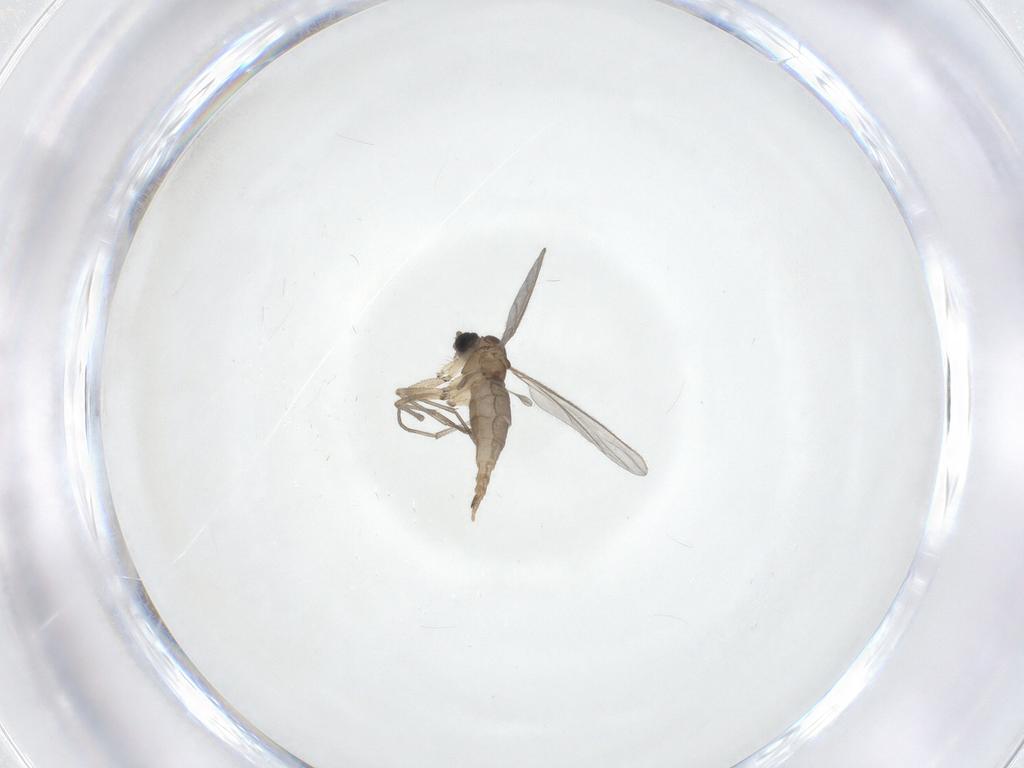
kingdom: Animalia
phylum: Arthropoda
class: Insecta
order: Diptera
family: Sciaridae
